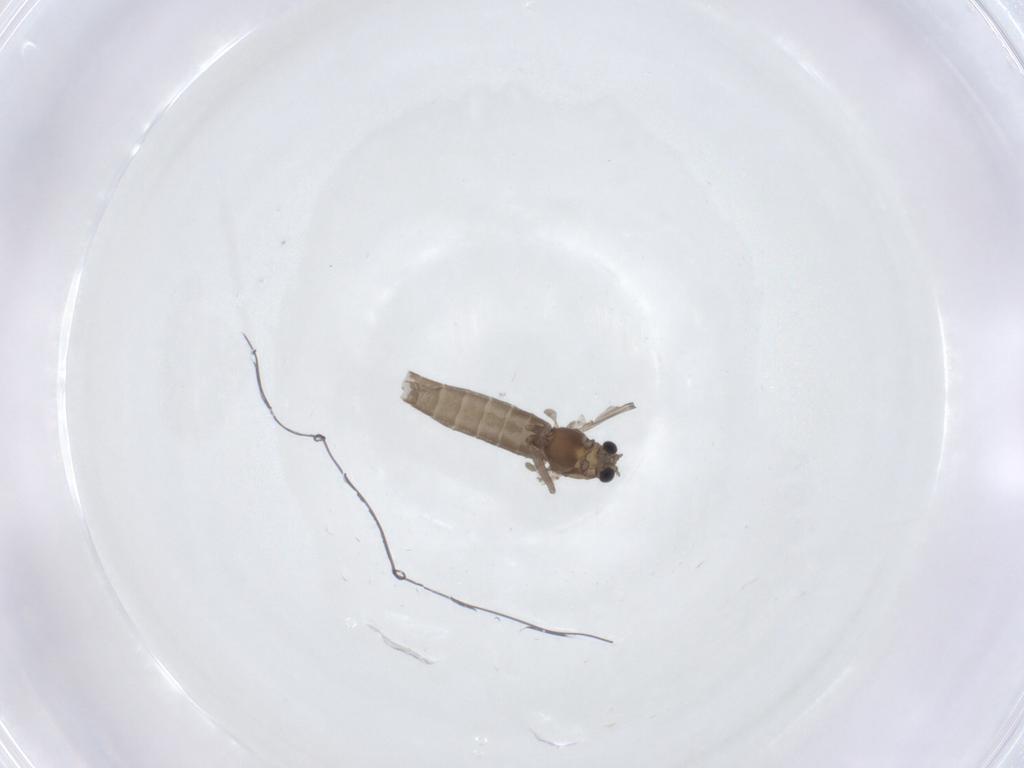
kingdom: Animalia
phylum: Arthropoda
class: Insecta
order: Diptera
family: Chironomidae
